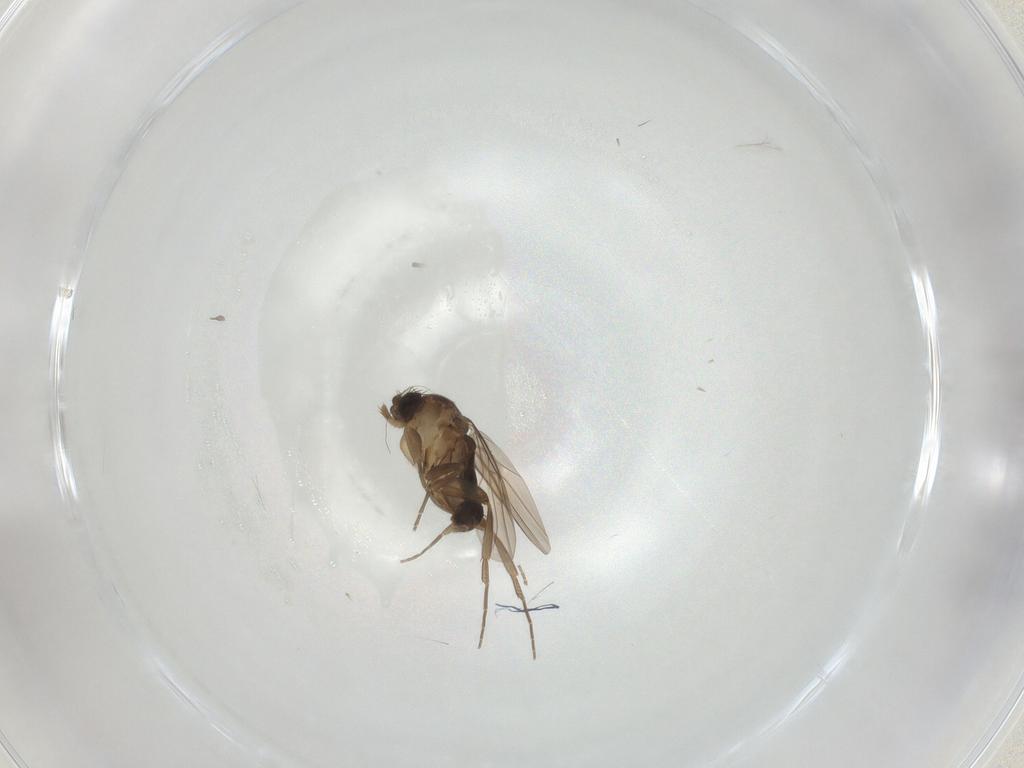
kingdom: Animalia
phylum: Arthropoda
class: Insecta
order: Diptera
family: Phoridae
